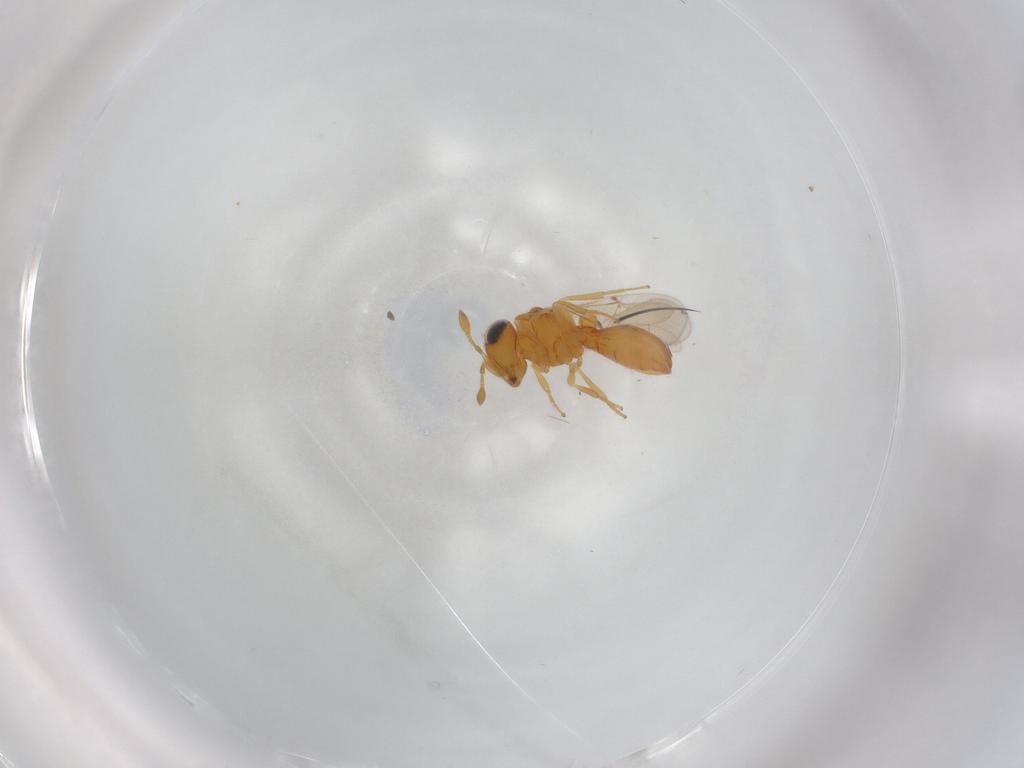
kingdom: Animalia
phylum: Arthropoda
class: Insecta
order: Hymenoptera
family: Scelionidae
